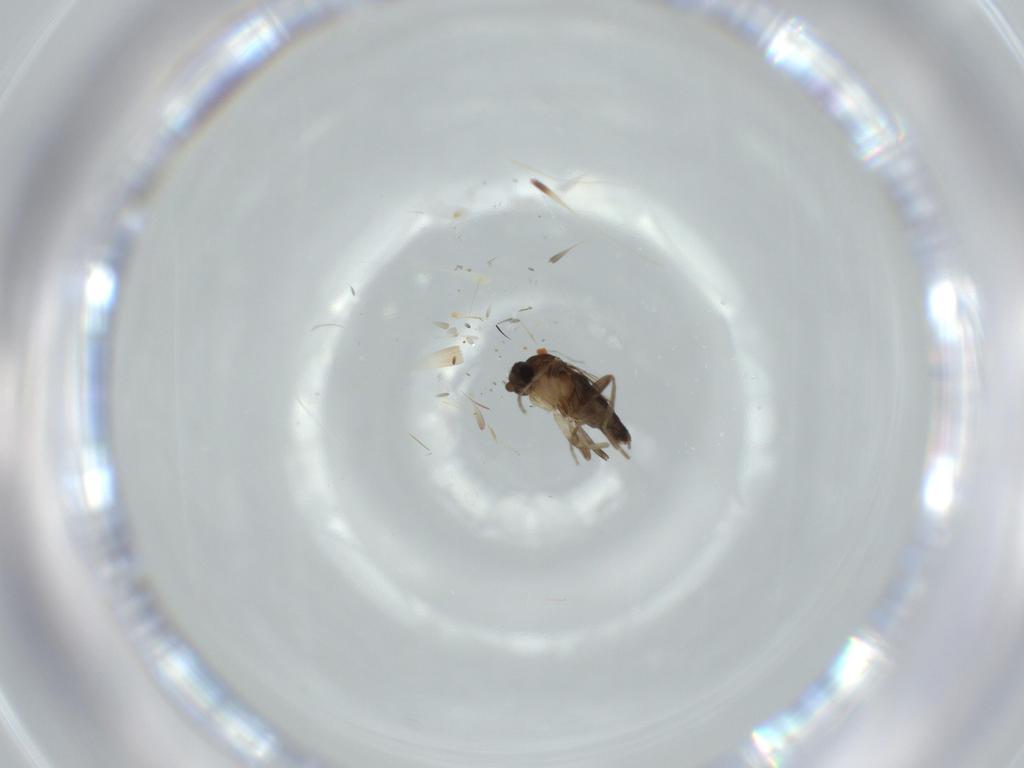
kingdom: Animalia
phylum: Arthropoda
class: Insecta
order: Diptera
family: Phoridae
